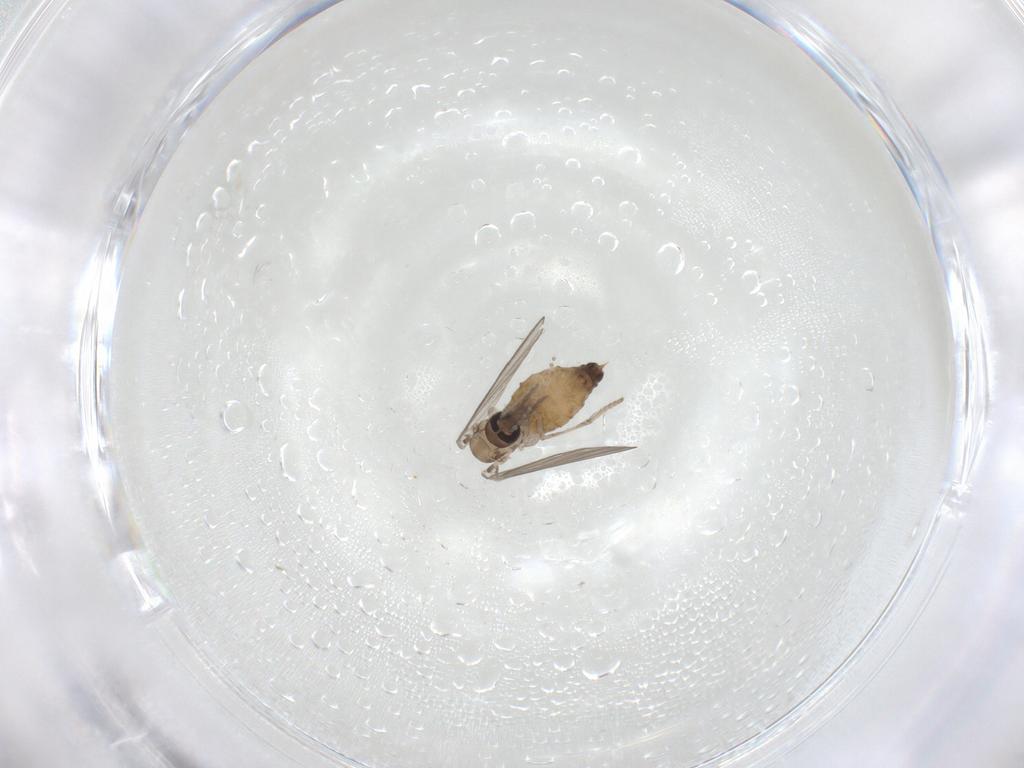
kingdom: Animalia
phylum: Arthropoda
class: Insecta
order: Diptera
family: Psychodidae
